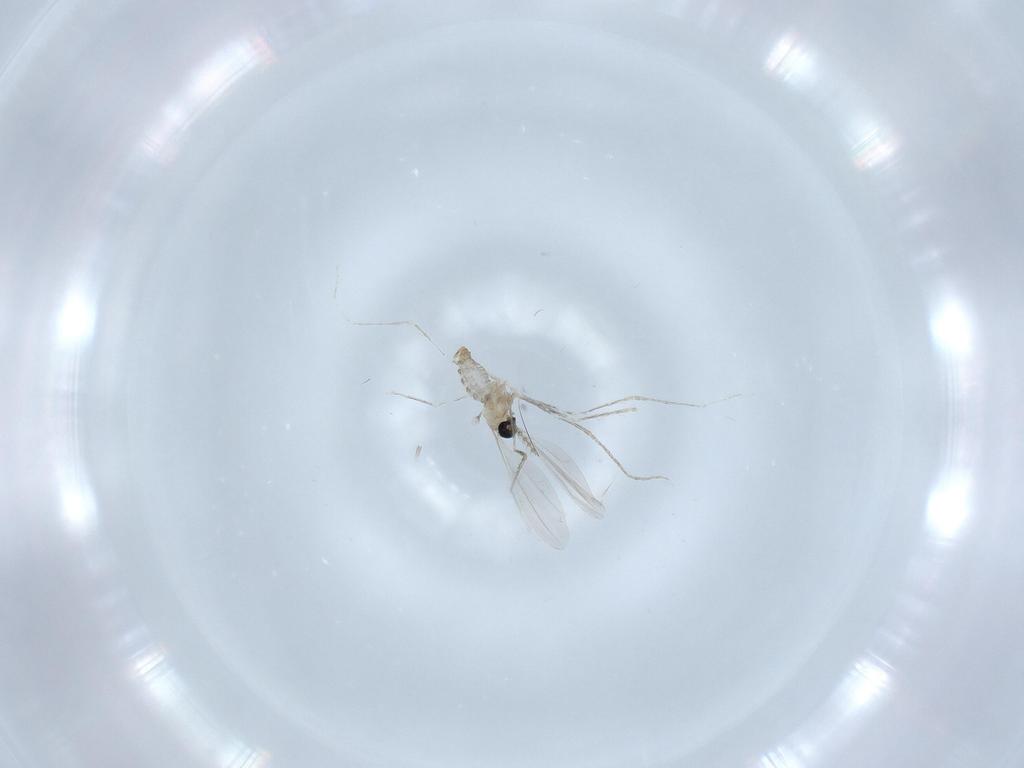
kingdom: Animalia
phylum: Arthropoda
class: Insecta
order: Diptera
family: Cecidomyiidae
